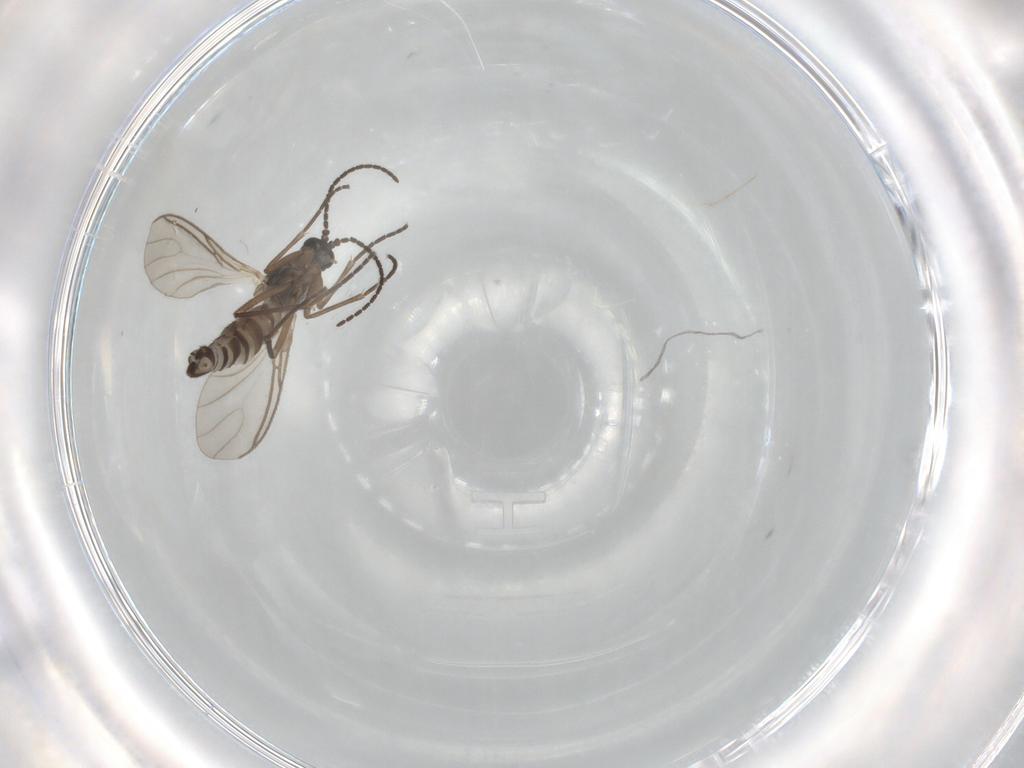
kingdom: Animalia
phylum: Arthropoda
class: Insecta
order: Diptera
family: Sciaridae
